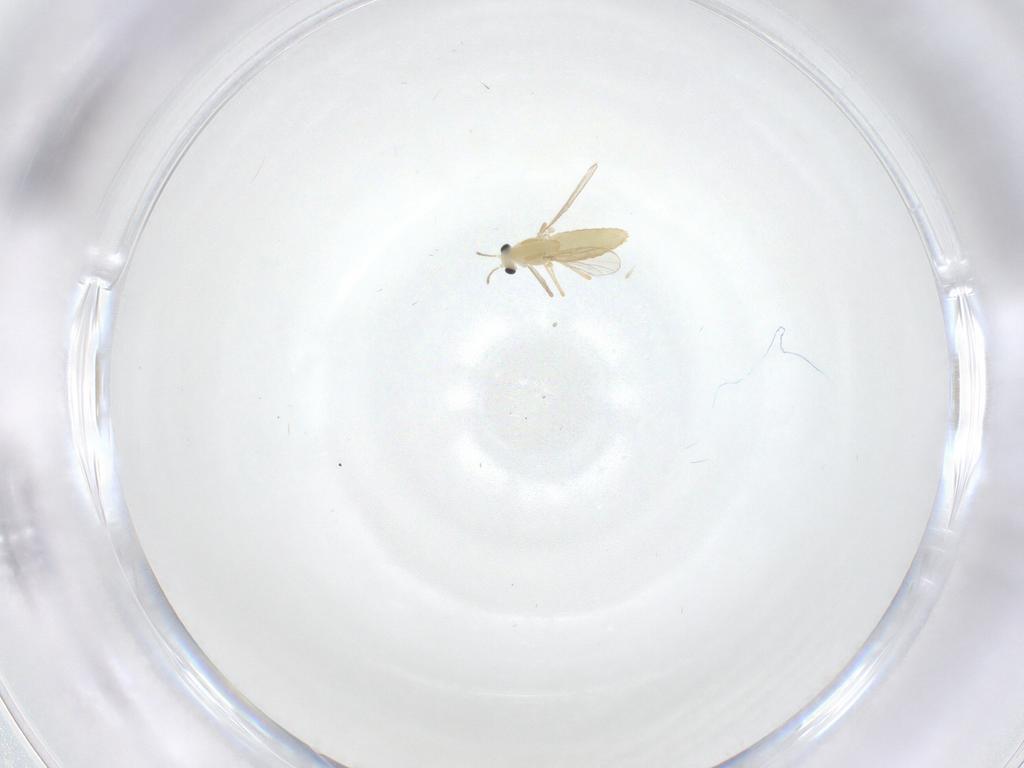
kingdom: Animalia
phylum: Arthropoda
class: Insecta
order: Diptera
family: Chironomidae
